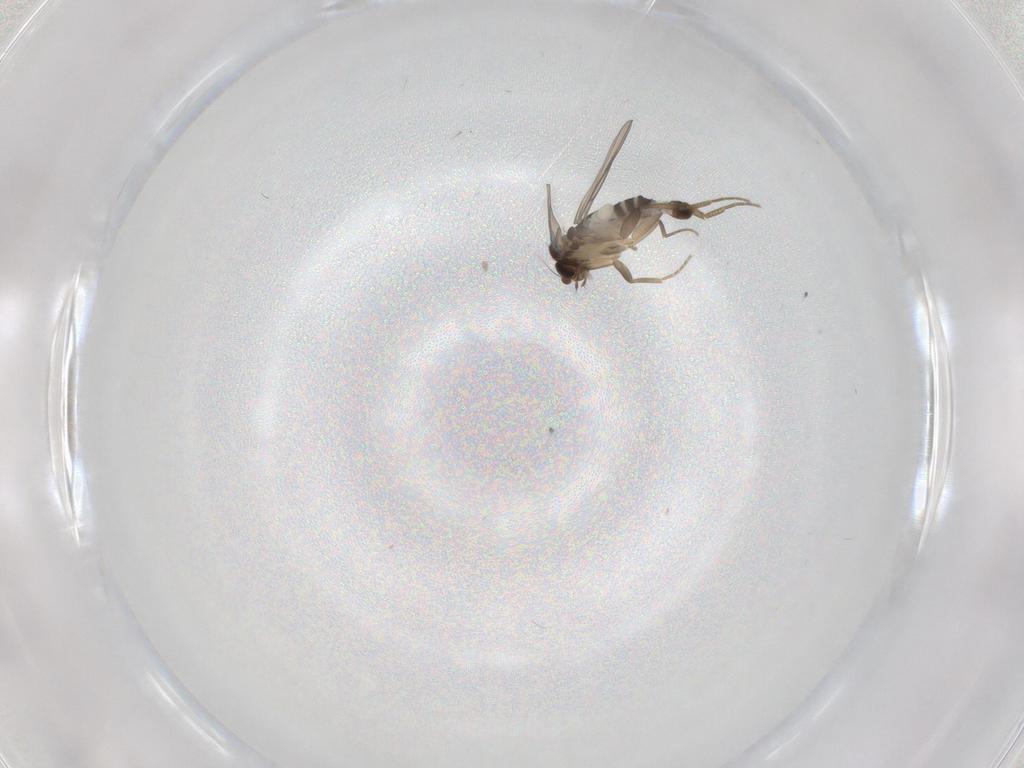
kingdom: Animalia
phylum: Arthropoda
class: Insecta
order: Diptera
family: Phoridae
